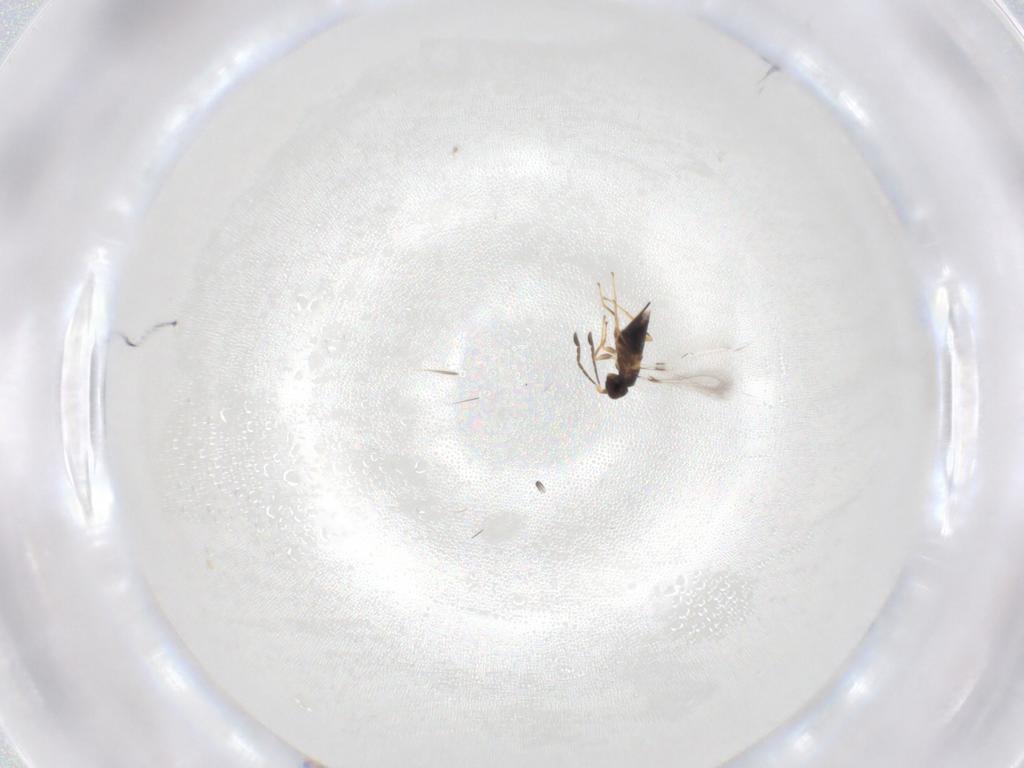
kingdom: Animalia
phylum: Arthropoda
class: Insecta
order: Hymenoptera
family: Mymaridae
